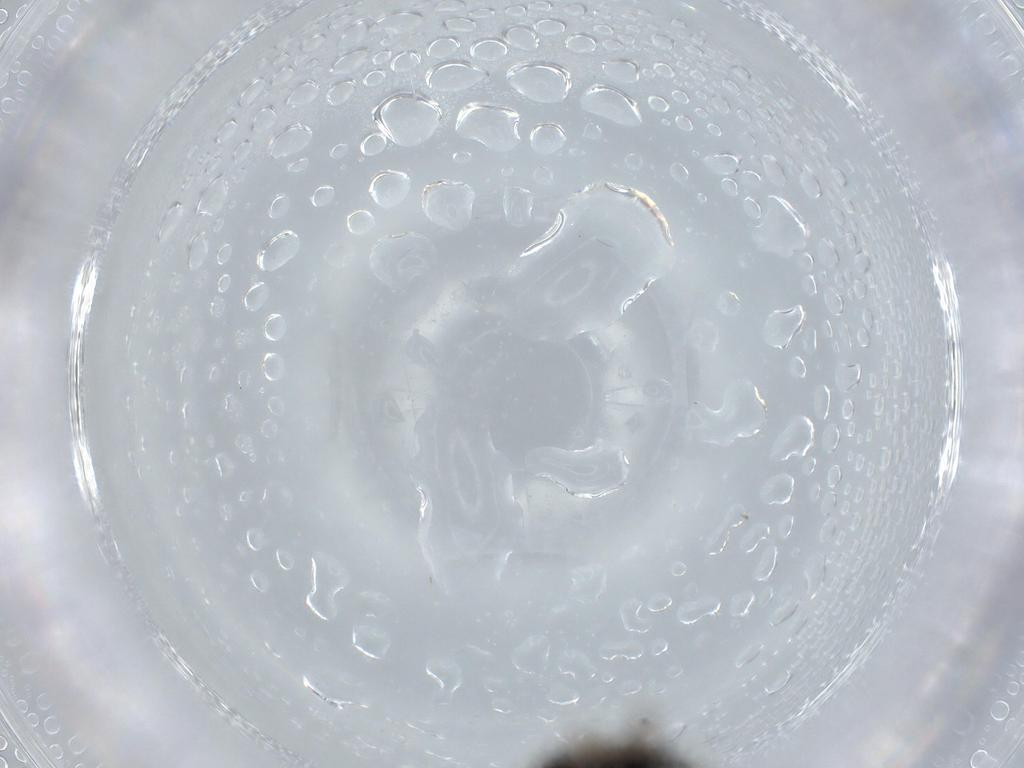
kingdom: Animalia
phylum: Arthropoda
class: Insecta
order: Diptera
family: Sciaridae
